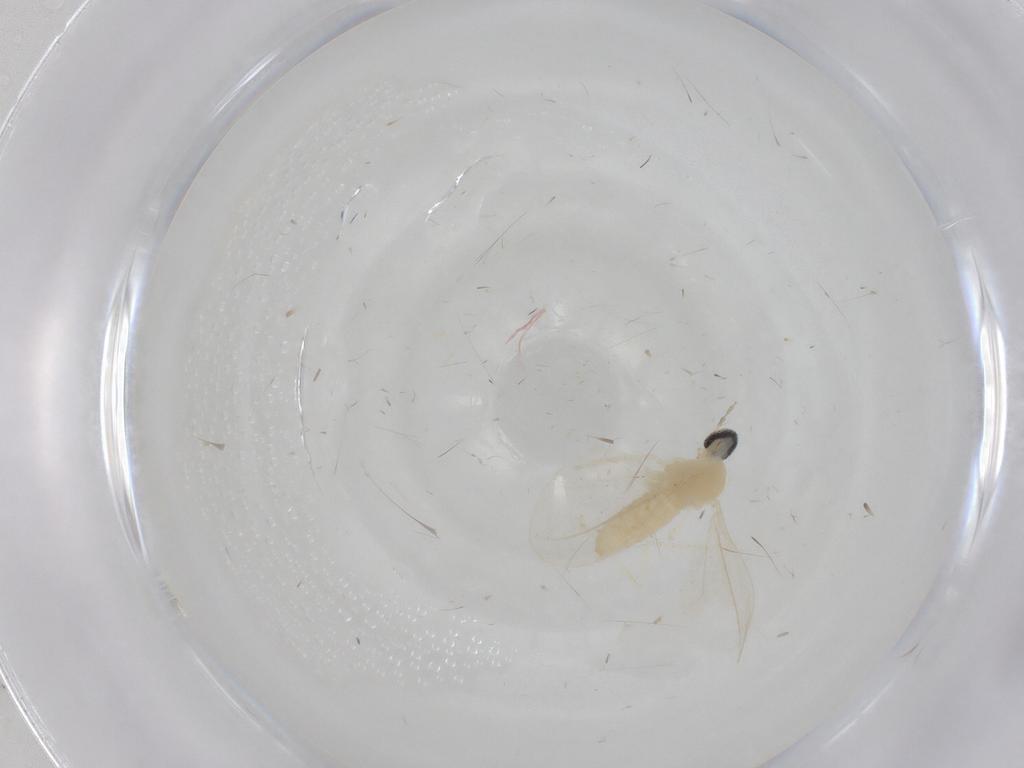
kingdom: Animalia
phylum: Arthropoda
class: Insecta
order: Diptera
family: Cecidomyiidae
